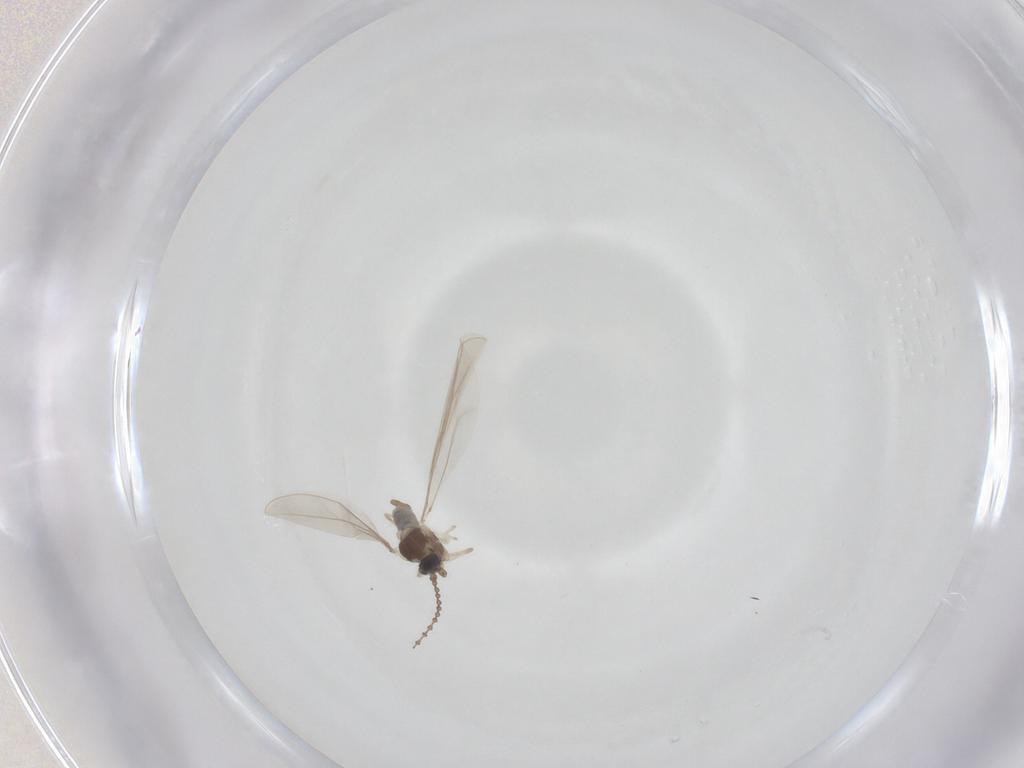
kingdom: Animalia
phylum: Arthropoda
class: Insecta
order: Diptera
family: Cecidomyiidae
